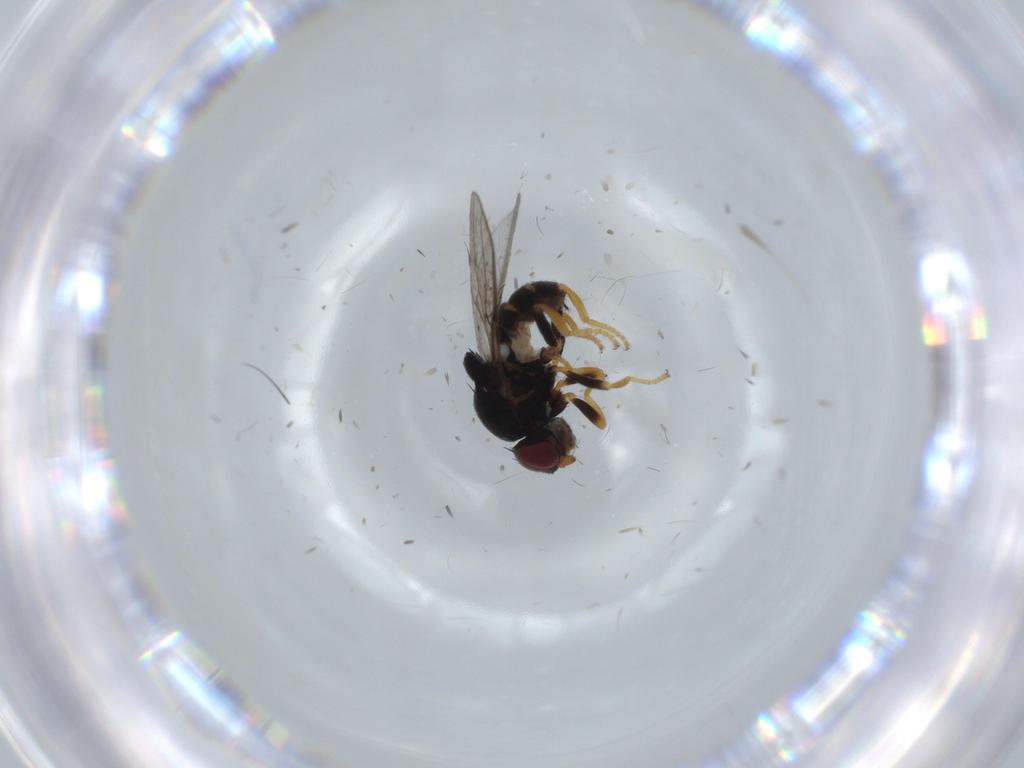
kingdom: Animalia
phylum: Arthropoda
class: Insecta
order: Diptera
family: Chloropidae
